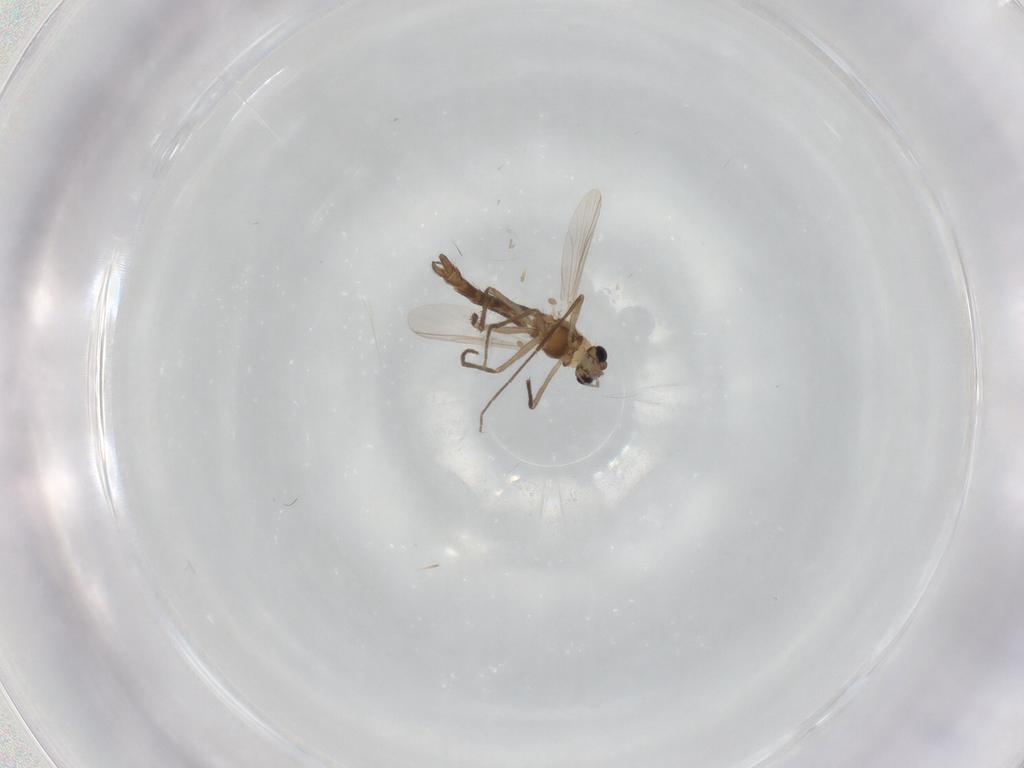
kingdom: Animalia
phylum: Arthropoda
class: Insecta
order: Diptera
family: Chironomidae
